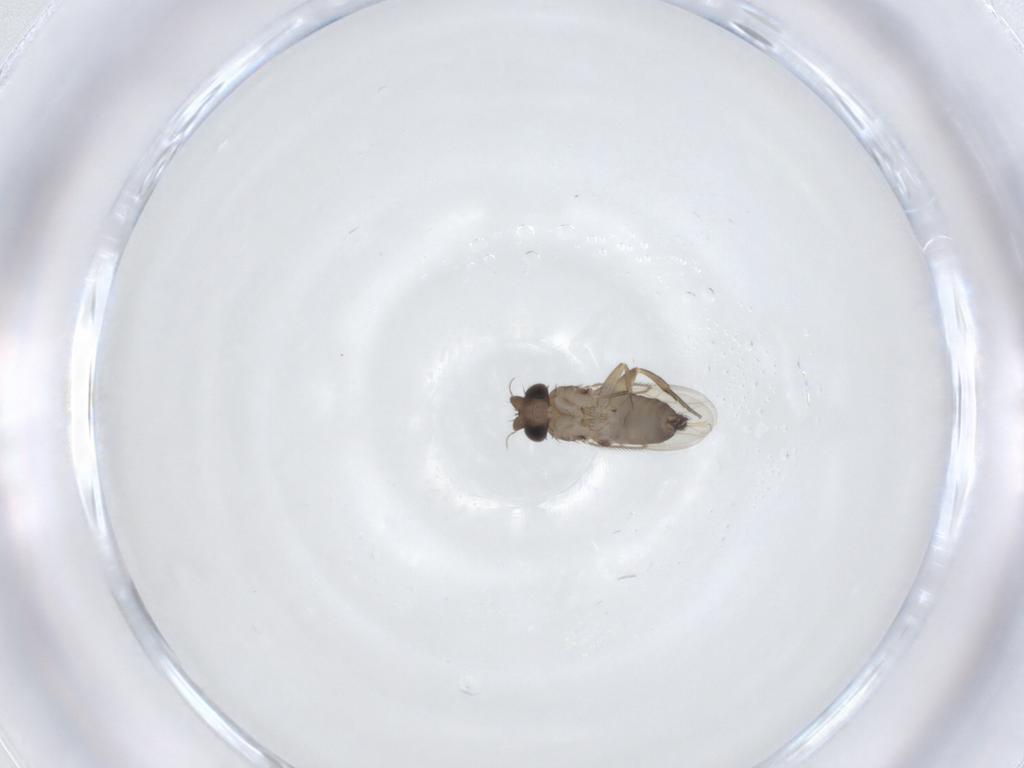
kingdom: Animalia
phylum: Arthropoda
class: Insecta
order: Diptera
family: Phoridae
